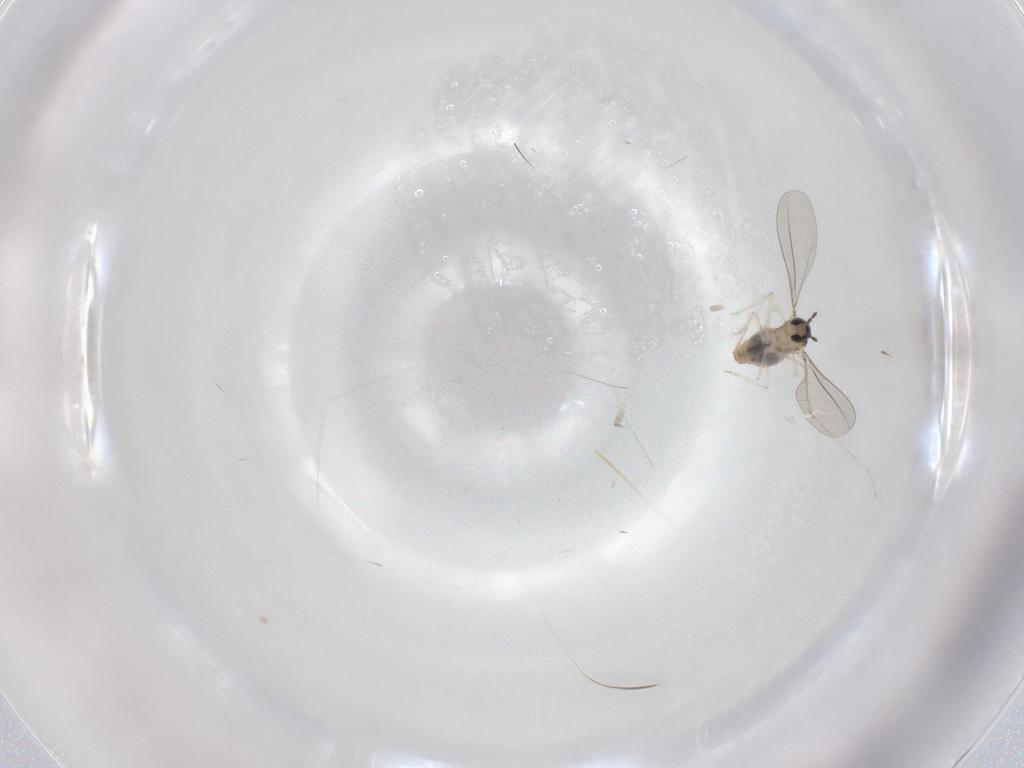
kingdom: Animalia
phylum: Arthropoda
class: Insecta
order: Diptera
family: Cecidomyiidae
